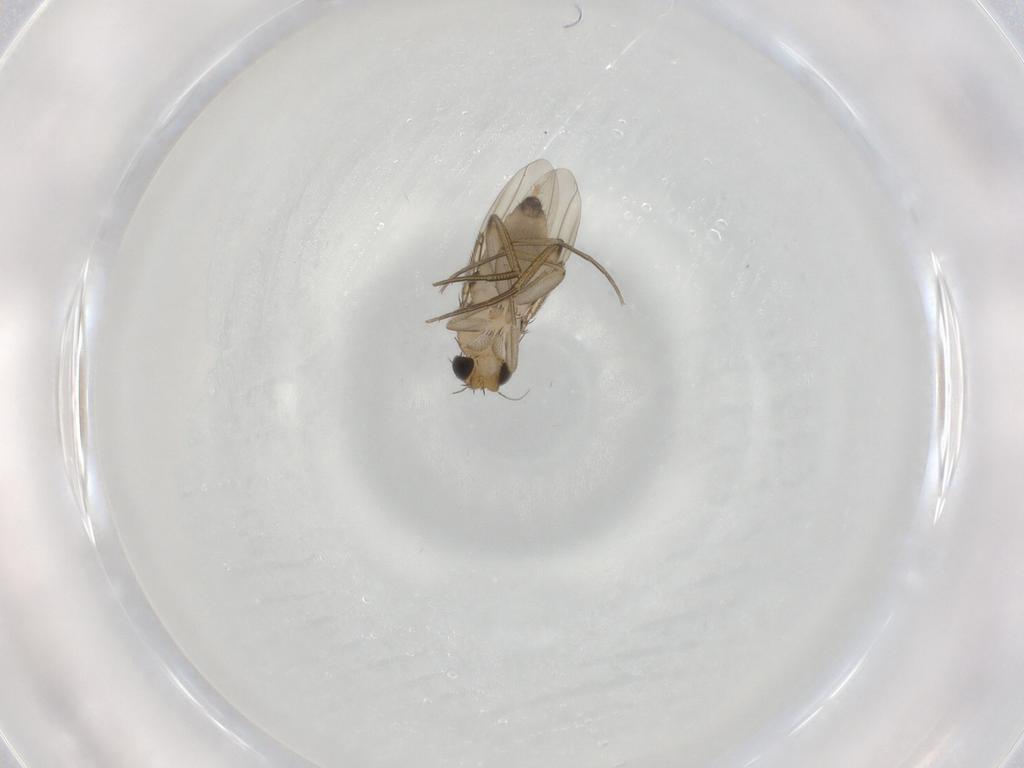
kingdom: Animalia
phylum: Arthropoda
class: Insecta
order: Diptera
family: Phoridae
